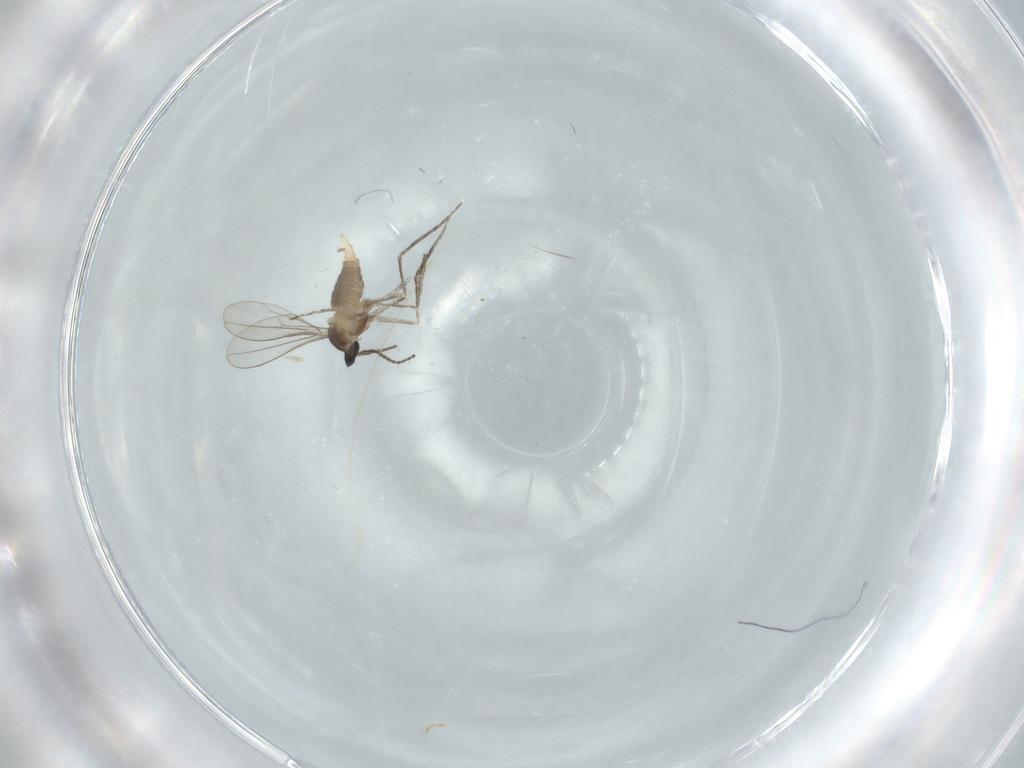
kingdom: Animalia
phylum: Arthropoda
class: Insecta
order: Diptera
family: Cecidomyiidae
